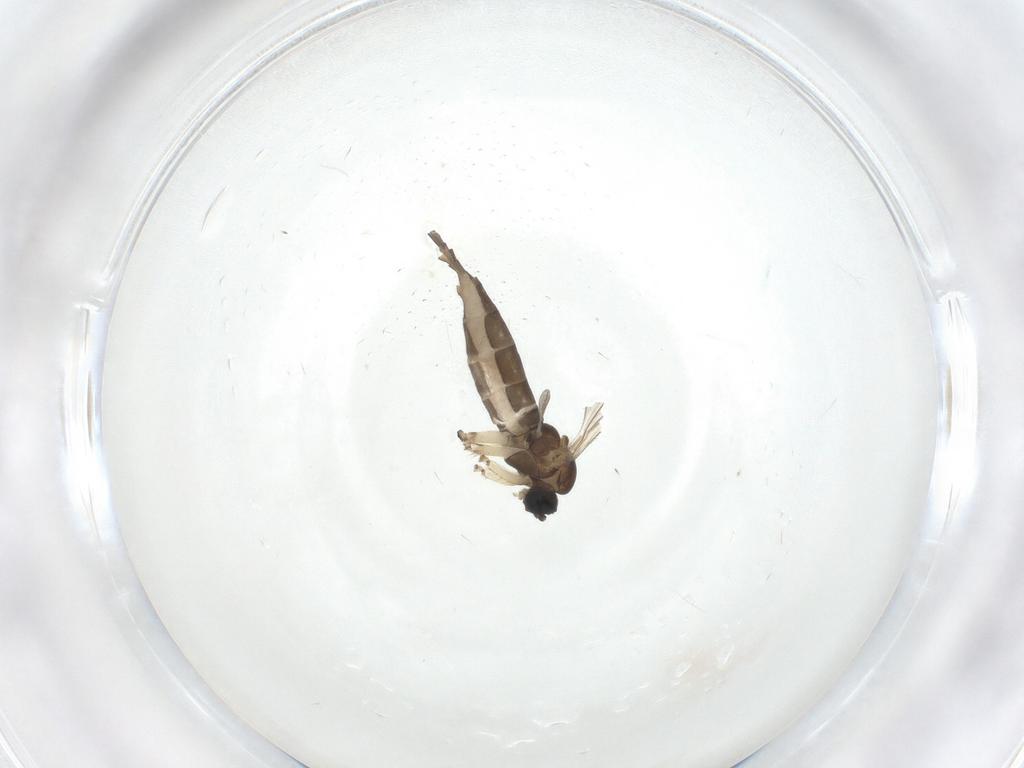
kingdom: Animalia
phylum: Arthropoda
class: Insecta
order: Diptera
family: Sciaridae
